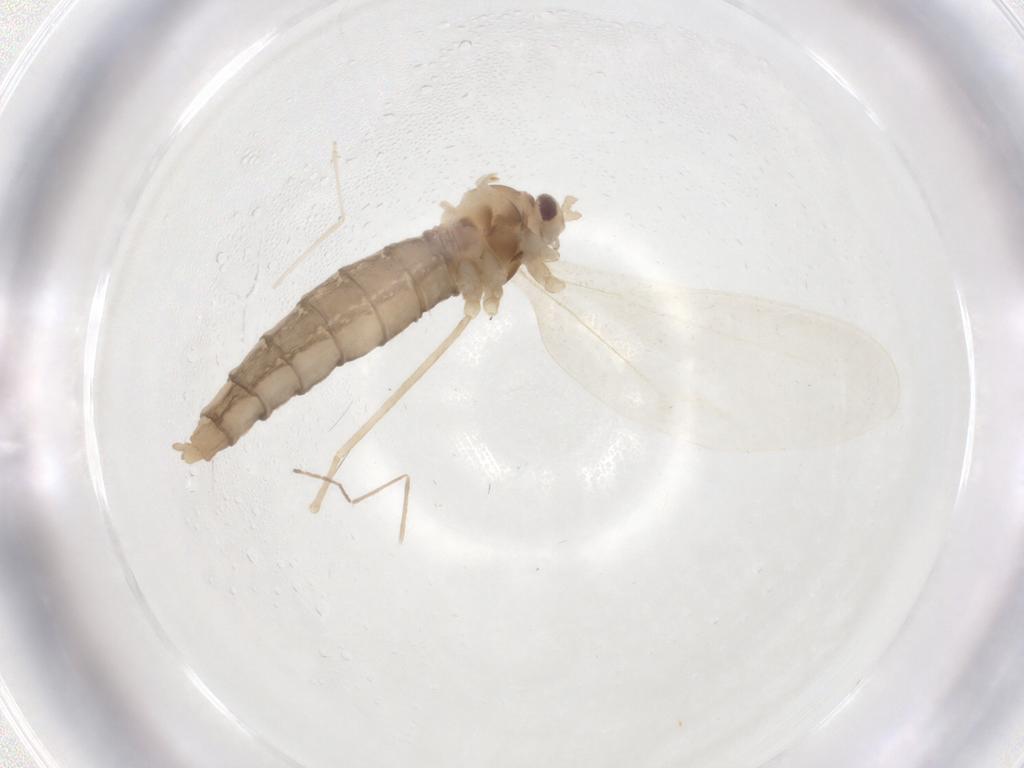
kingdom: Animalia
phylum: Arthropoda
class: Insecta
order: Diptera
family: Cecidomyiidae
